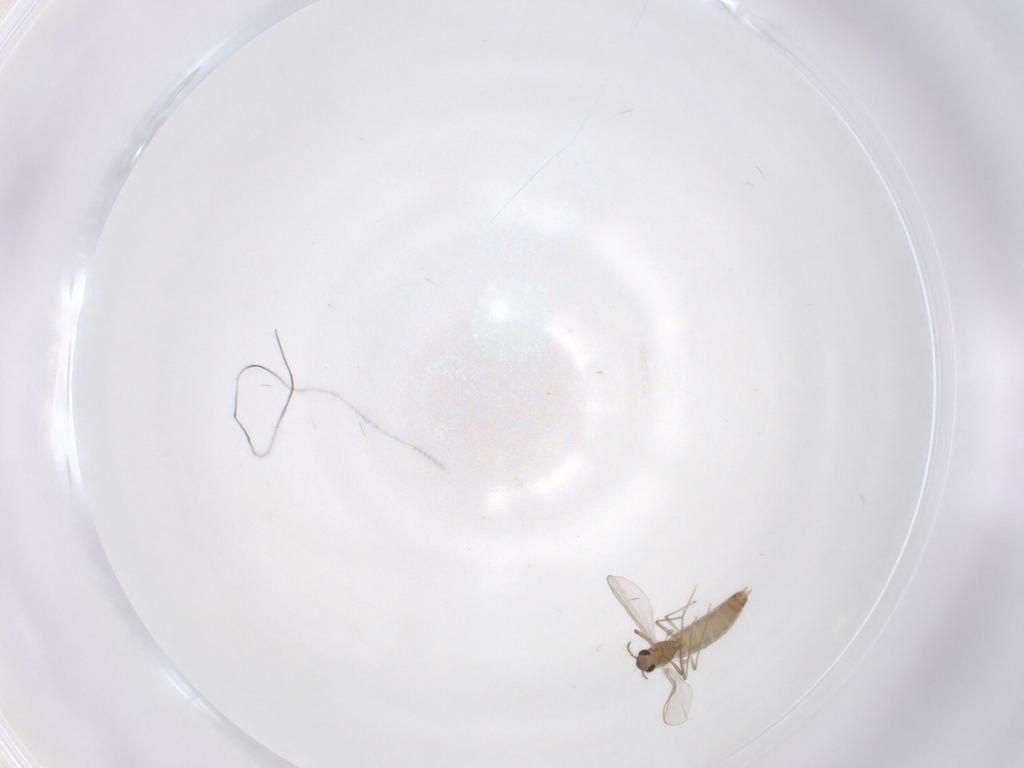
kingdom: Animalia
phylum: Arthropoda
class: Insecta
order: Diptera
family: Chironomidae
